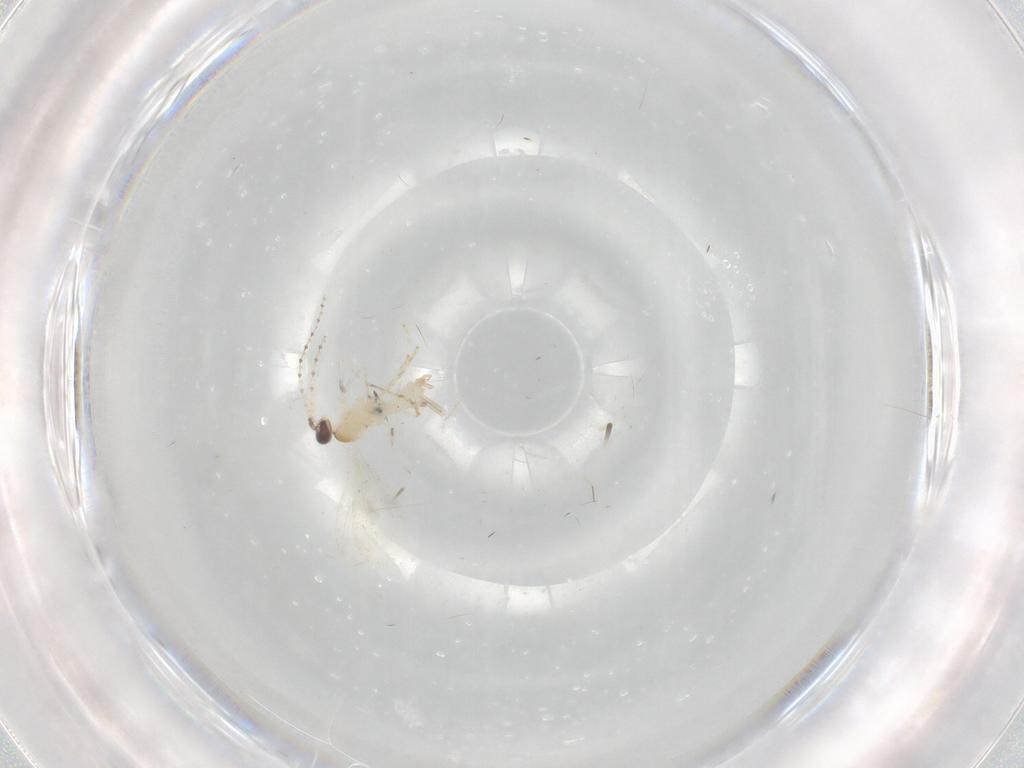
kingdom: Animalia
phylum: Arthropoda
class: Insecta
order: Diptera
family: Cecidomyiidae
